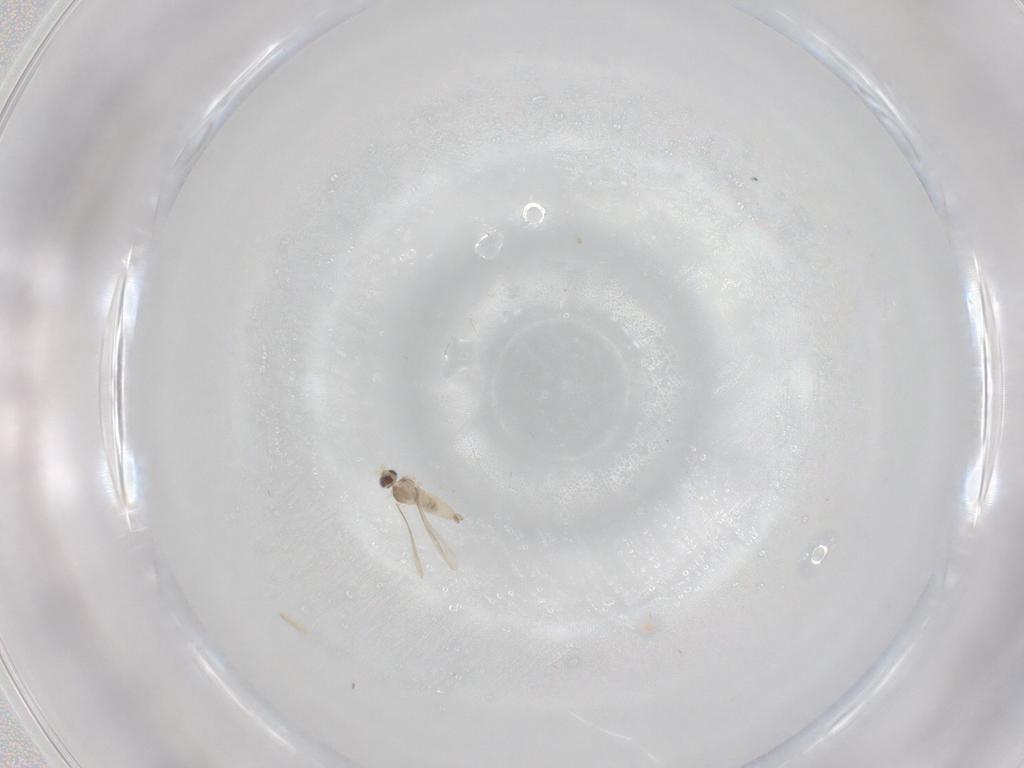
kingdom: Animalia
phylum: Arthropoda
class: Insecta
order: Diptera
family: Cecidomyiidae
